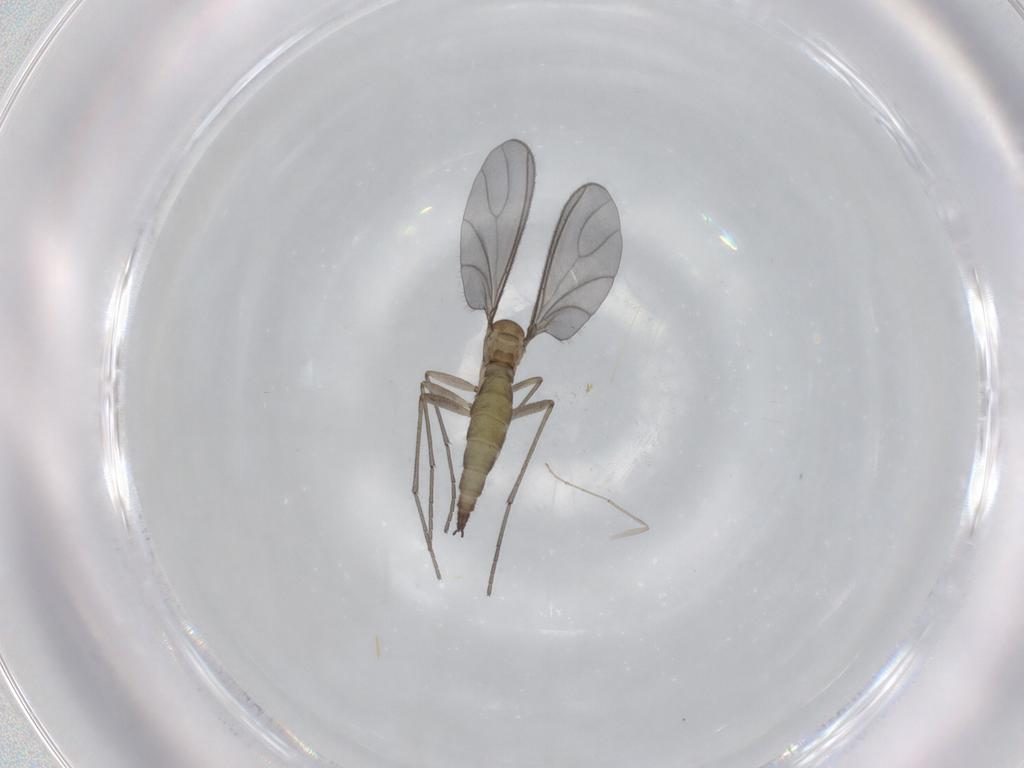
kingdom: Animalia
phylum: Arthropoda
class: Insecta
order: Diptera
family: Sciaridae
